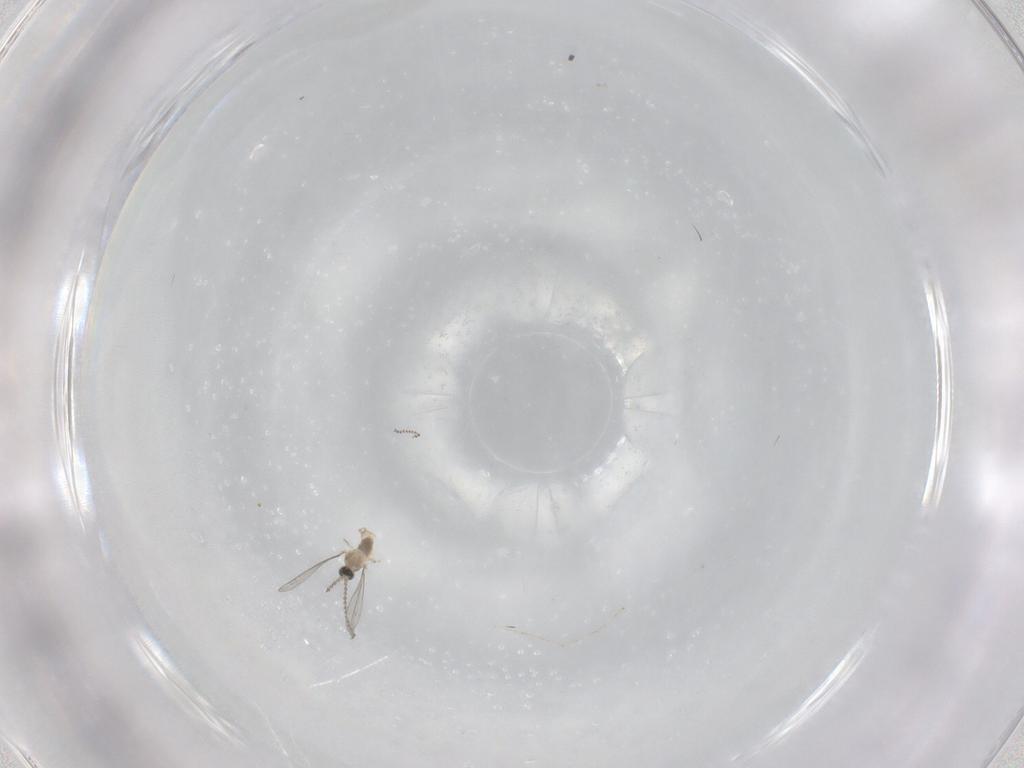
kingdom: Animalia
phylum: Arthropoda
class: Insecta
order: Diptera
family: Cecidomyiidae
